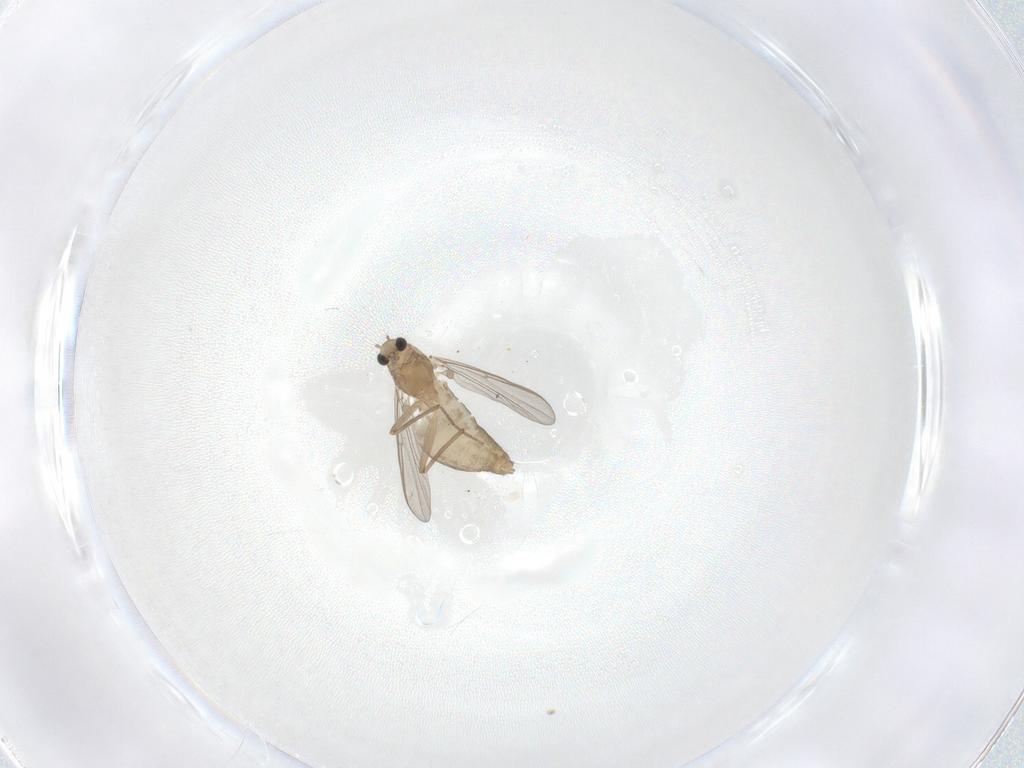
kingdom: Animalia
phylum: Arthropoda
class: Insecta
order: Diptera
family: Chironomidae
